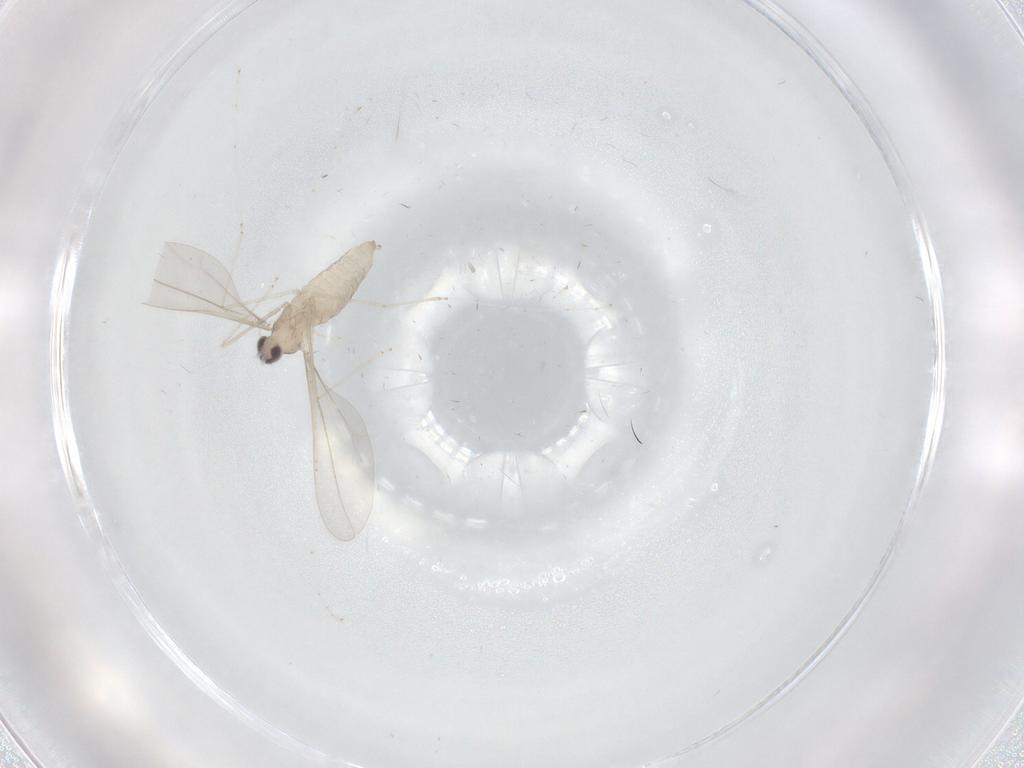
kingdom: Animalia
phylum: Arthropoda
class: Insecta
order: Diptera
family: Cecidomyiidae
